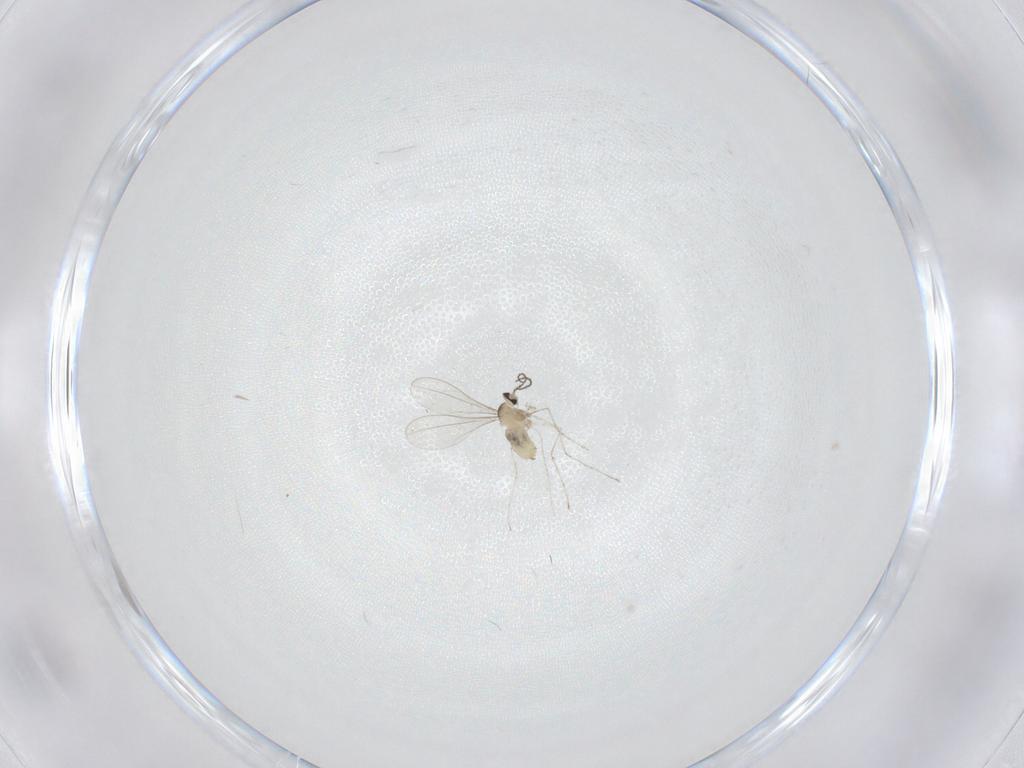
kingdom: Animalia
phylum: Arthropoda
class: Insecta
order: Diptera
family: Cecidomyiidae
